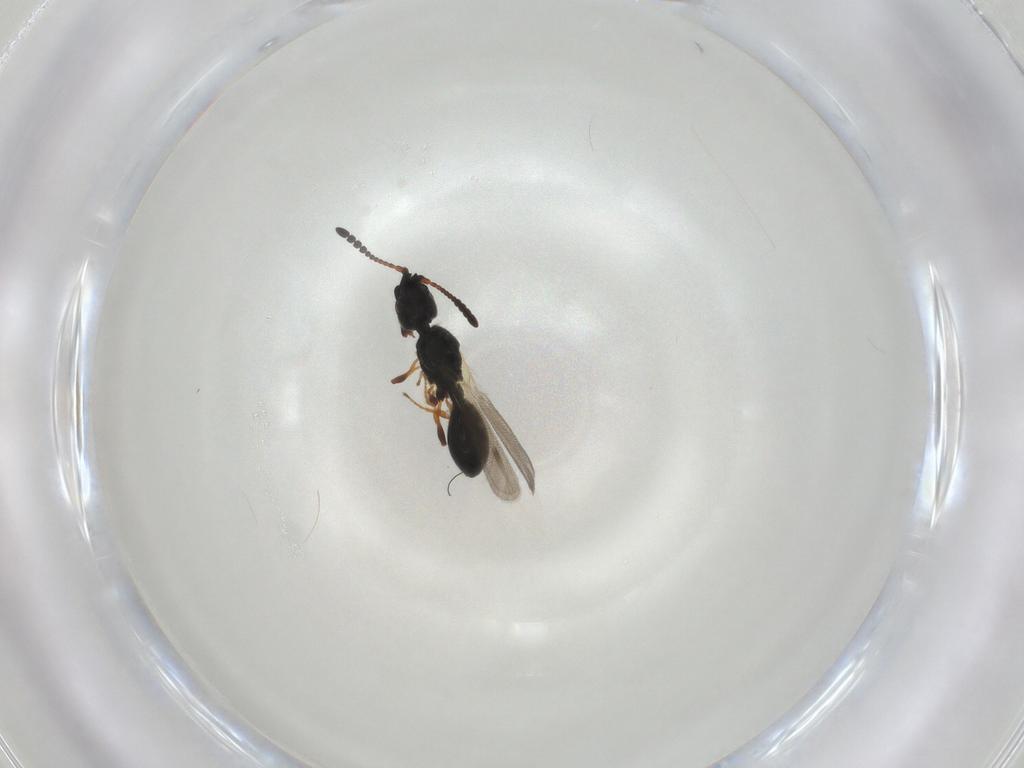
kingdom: Animalia
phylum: Arthropoda
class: Insecta
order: Hymenoptera
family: Diapriidae
